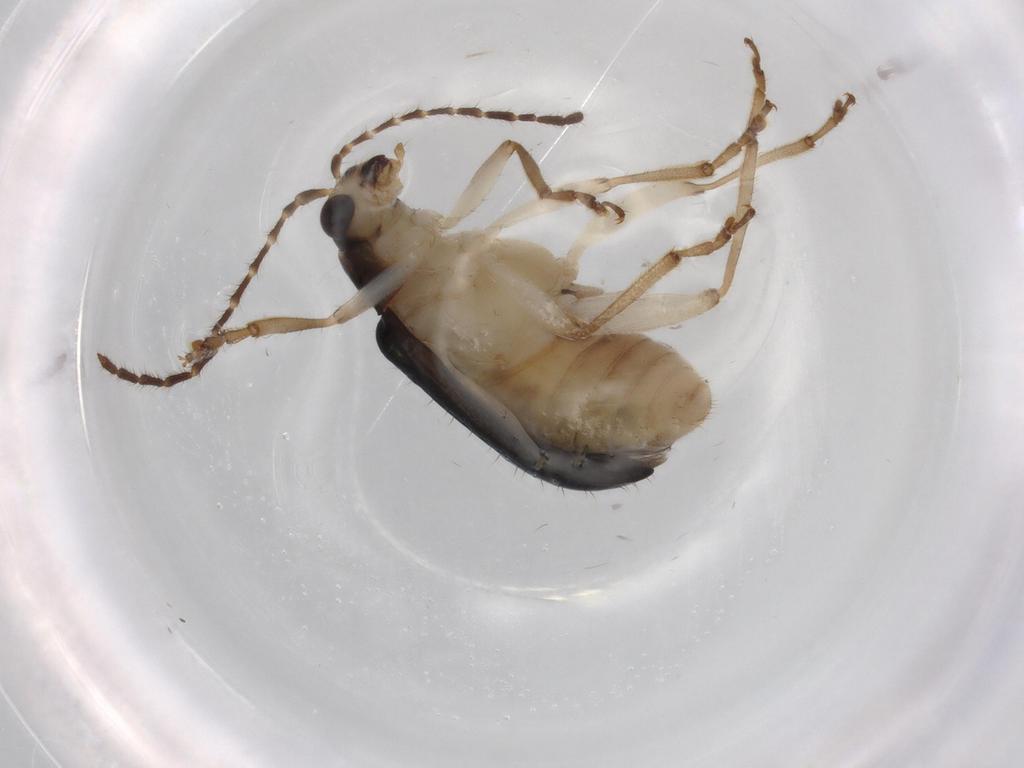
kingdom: Animalia
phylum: Arthropoda
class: Insecta
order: Coleoptera
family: Chrysomelidae
